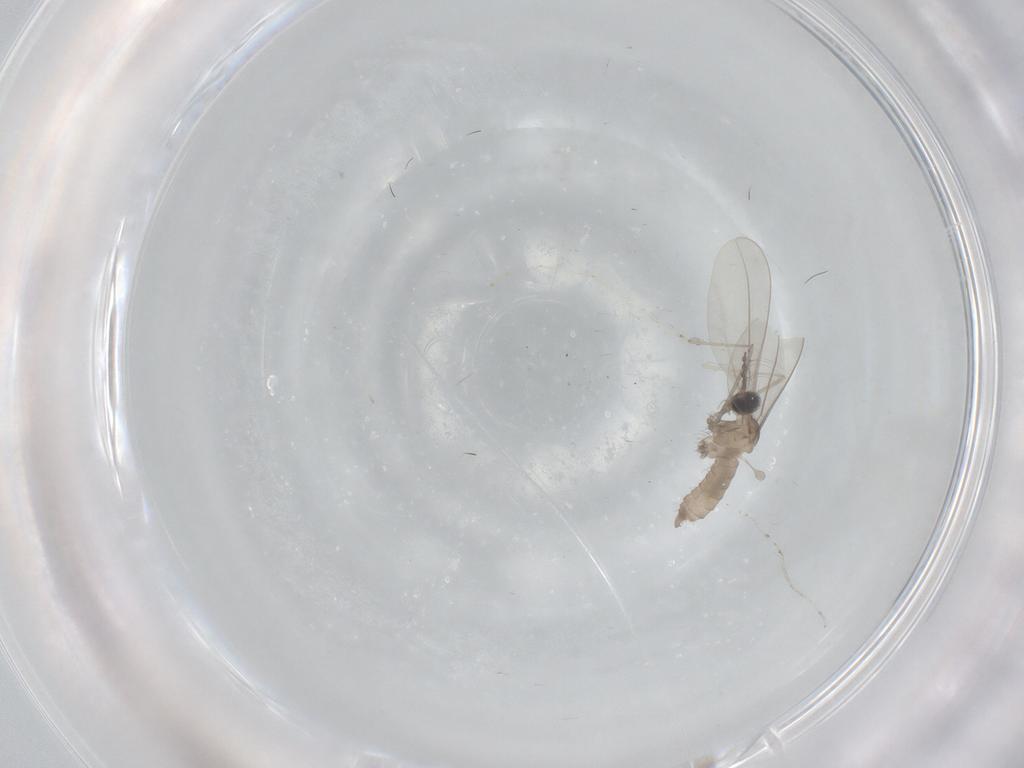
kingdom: Animalia
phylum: Arthropoda
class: Insecta
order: Diptera
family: Cecidomyiidae
